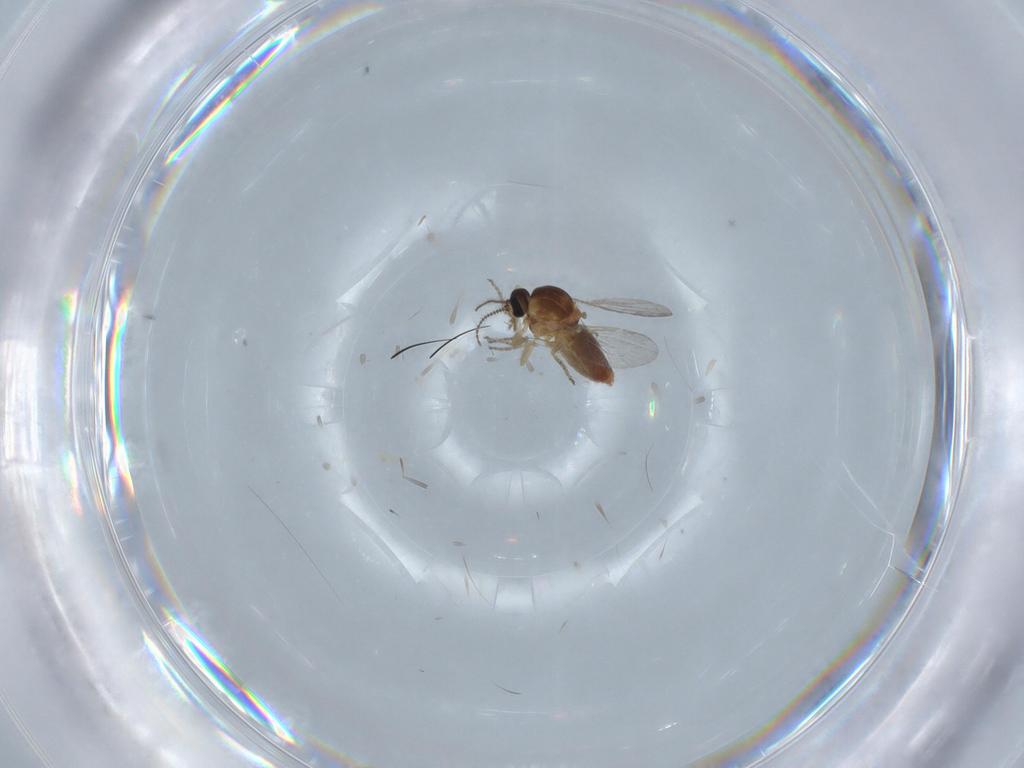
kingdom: Animalia
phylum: Arthropoda
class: Insecta
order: Diptera
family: Ceratopogonidae
